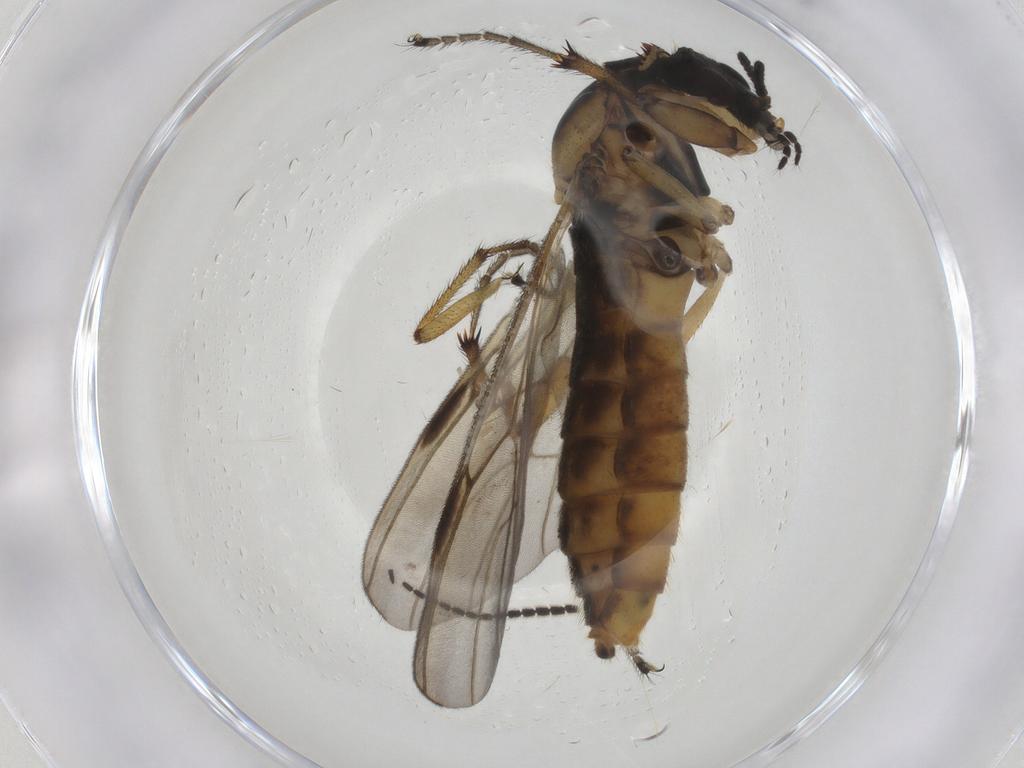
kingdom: Animalia
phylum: Arthropoda
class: Insecta
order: Diptera
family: Bibionidae
